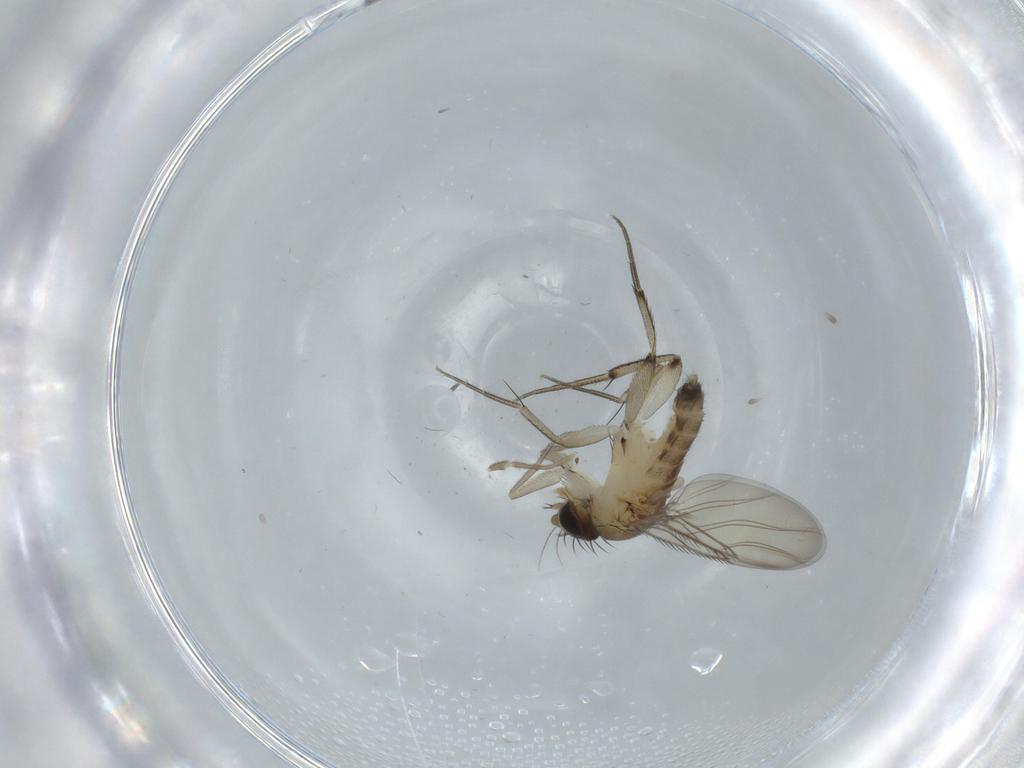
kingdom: Animalia
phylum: Arthropoda
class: Insecta
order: Diptera
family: Phoridae
